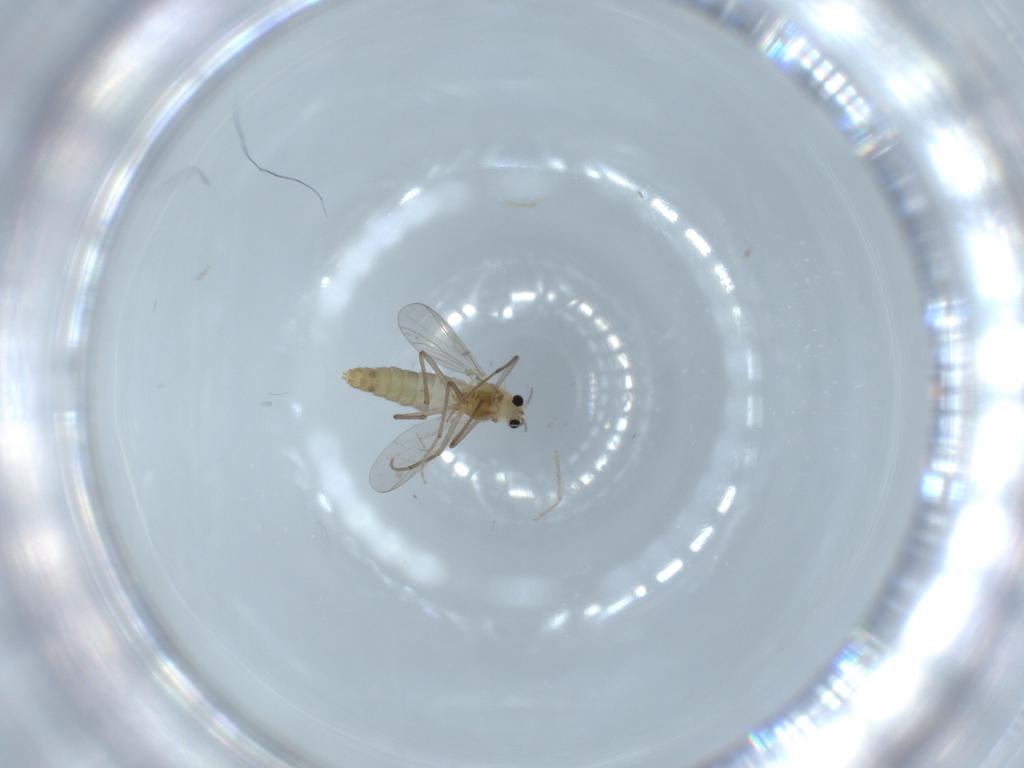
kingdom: Animalia
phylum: Arthropoda
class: Insecta
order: Diptera
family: Chironomidae
